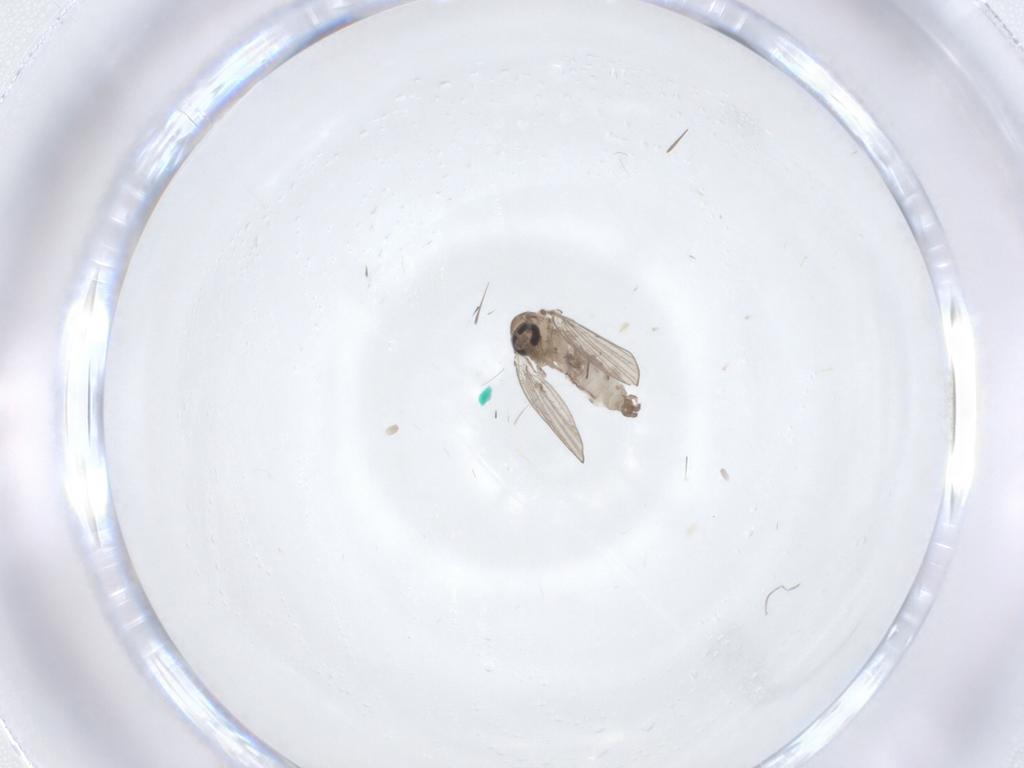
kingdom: Animalia
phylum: Arthropoda
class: Insecta
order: Diptera
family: Psychodidae
